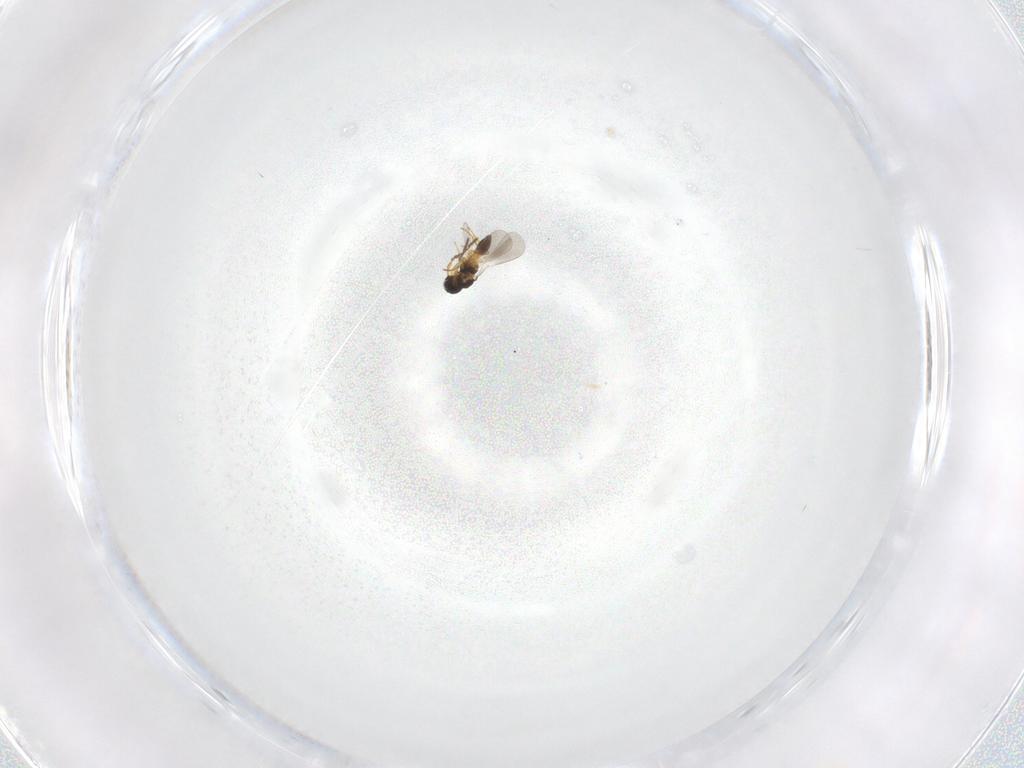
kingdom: Animalia
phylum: Arthropoda
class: Insecta
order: Hymenoptera
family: Platygastridae
